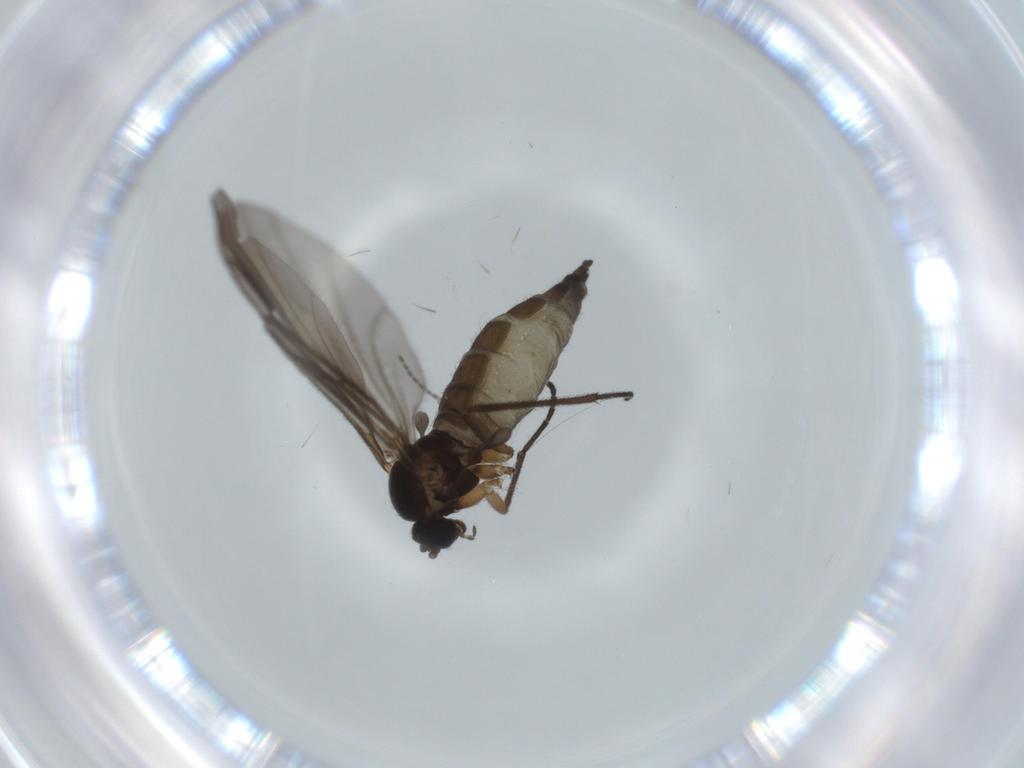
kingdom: Animalia
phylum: Arthropoda
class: Insecta
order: Diptera
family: Sciaridae
